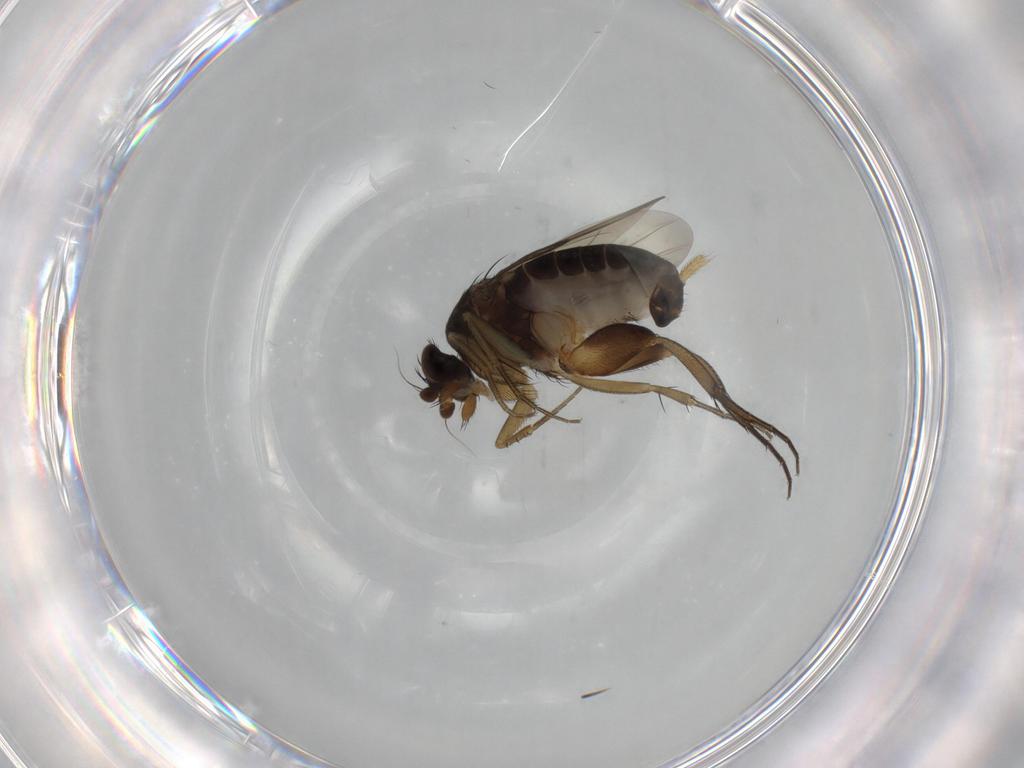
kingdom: Animalia
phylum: Arthropoda
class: Insecta
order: Diptera
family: Phoridae
